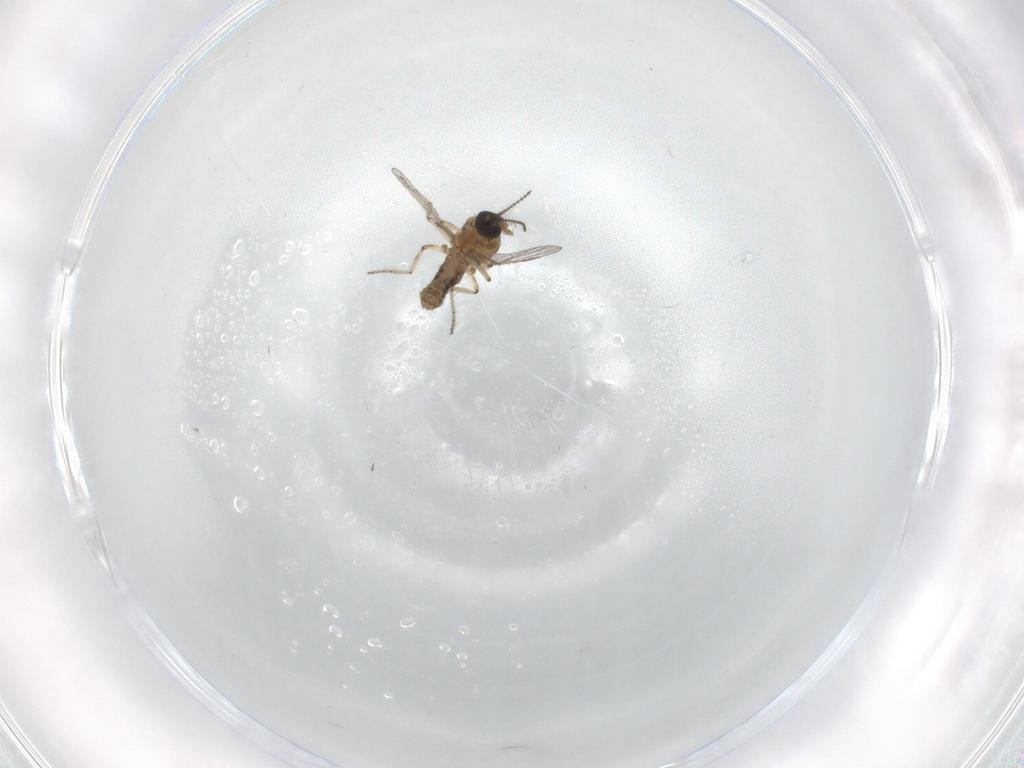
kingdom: Animalia
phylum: Arthropoda
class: Insecta
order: Diptera
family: Ceratopogonidae
